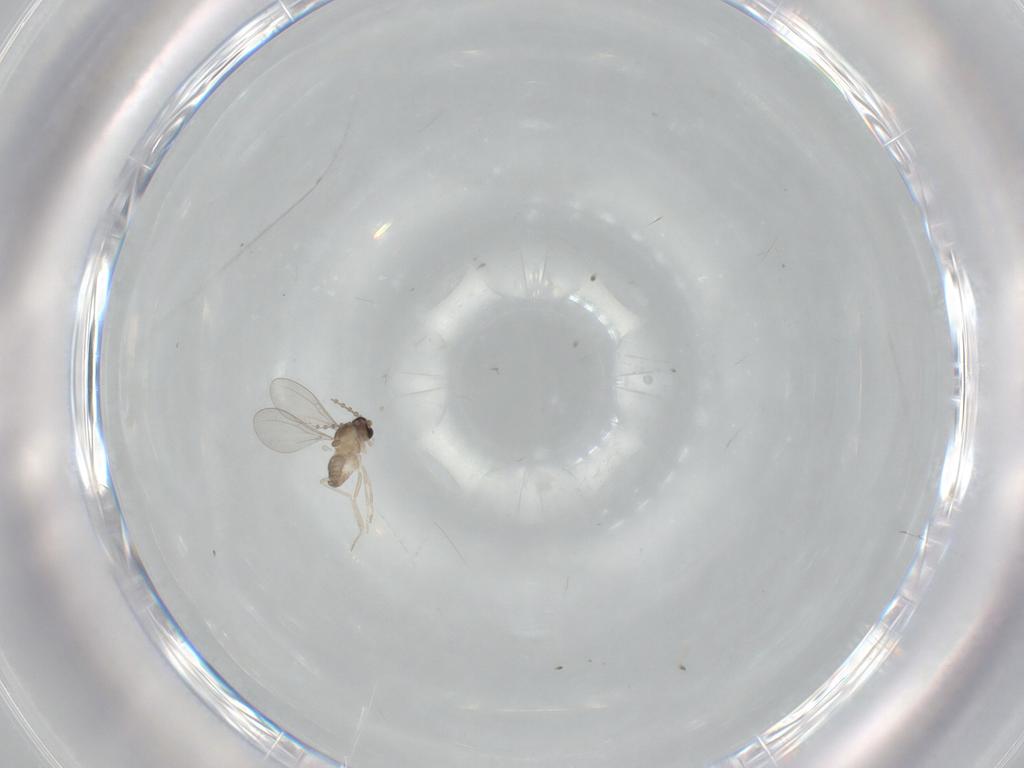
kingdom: Animalia
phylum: Arthropoda
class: Insecta
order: Diptera
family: Cecidomyiidae
